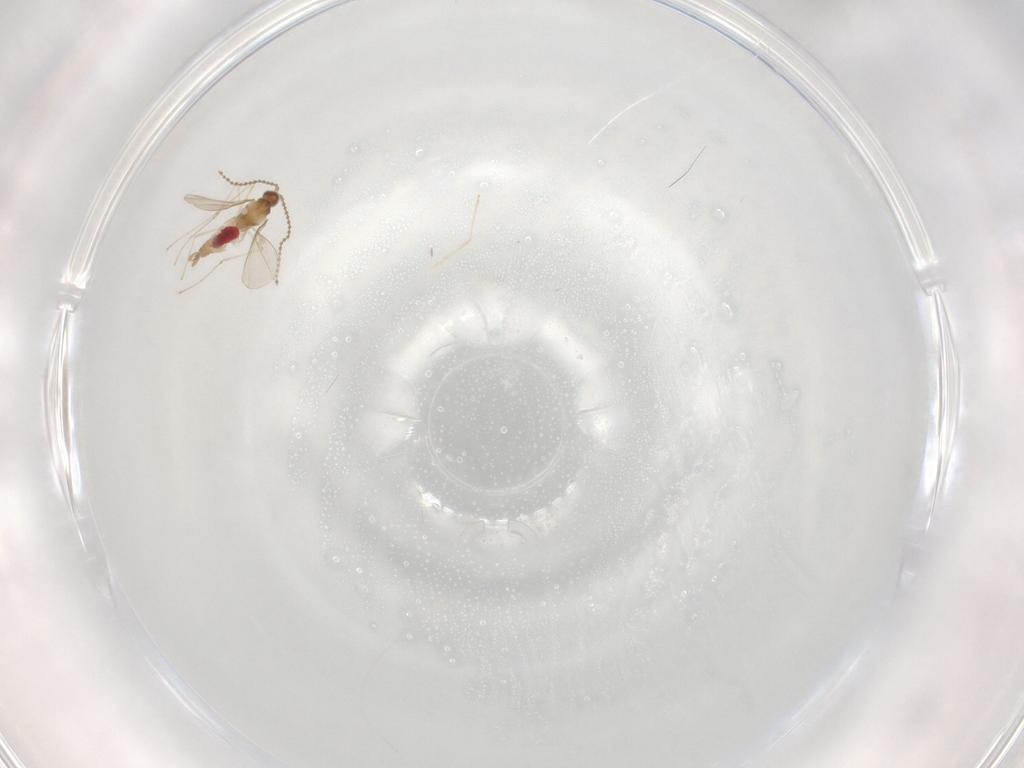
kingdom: Animalia
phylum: Arthropoda
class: Insecta
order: Diptera
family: Cecidomyiidae
